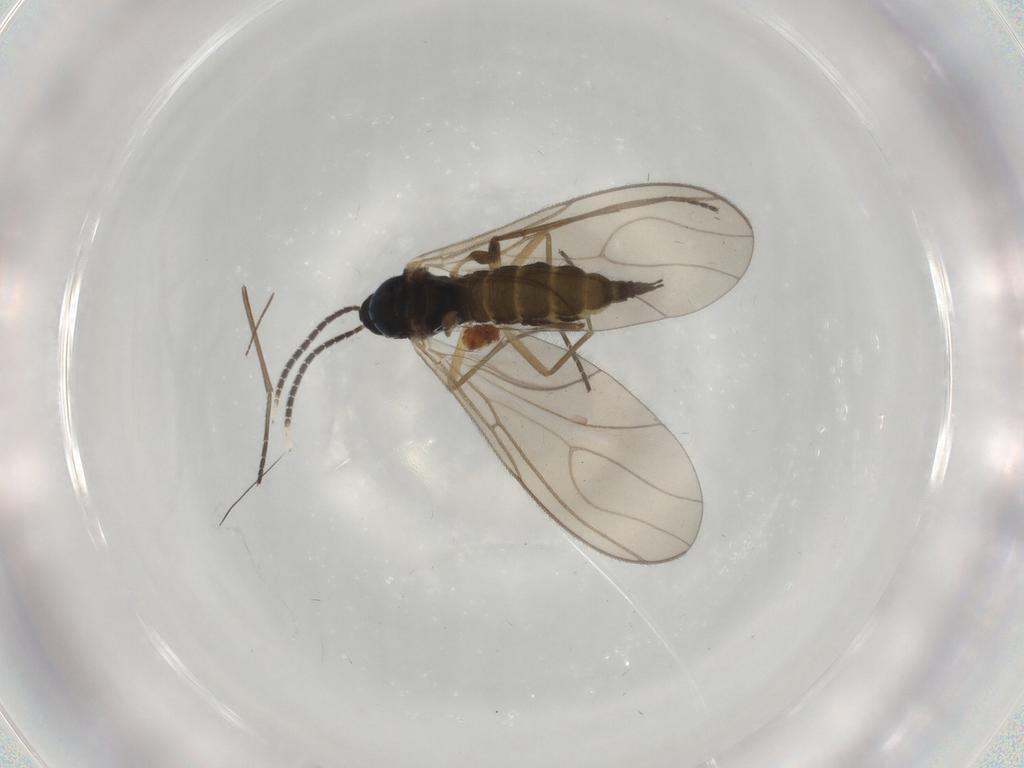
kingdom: Animalia
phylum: Arthropoda
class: Insecta
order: Diptera
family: Sciaridae
